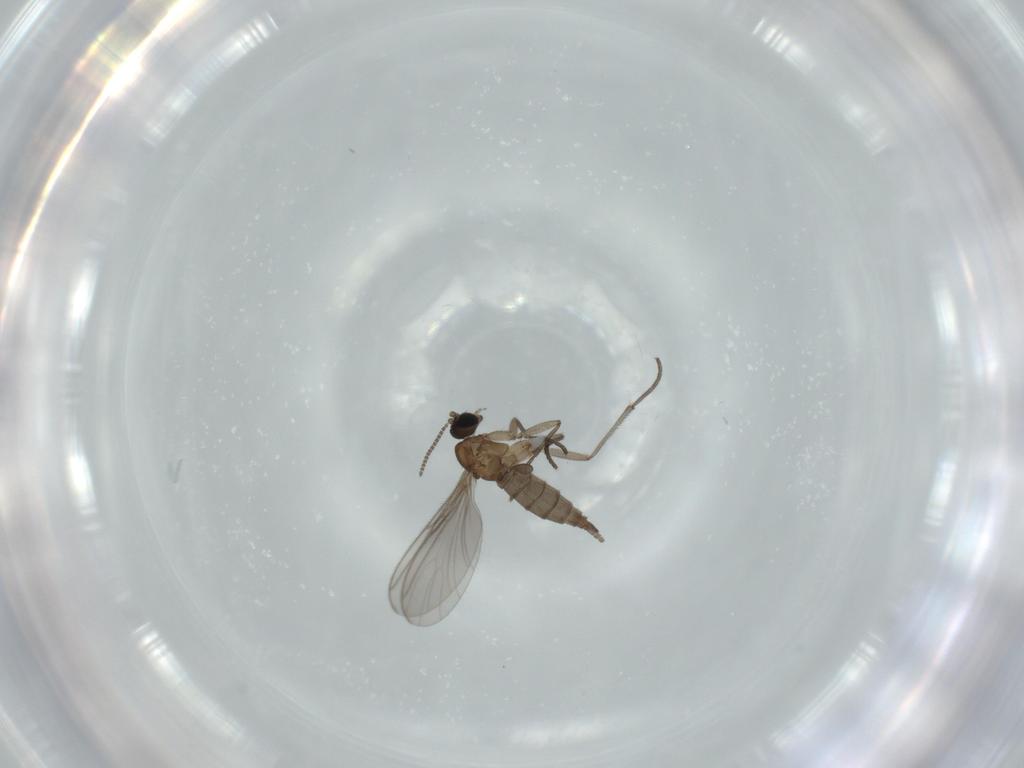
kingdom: Animalia
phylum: Arthropoda
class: Insecta
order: Diptera
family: Sciaridae
